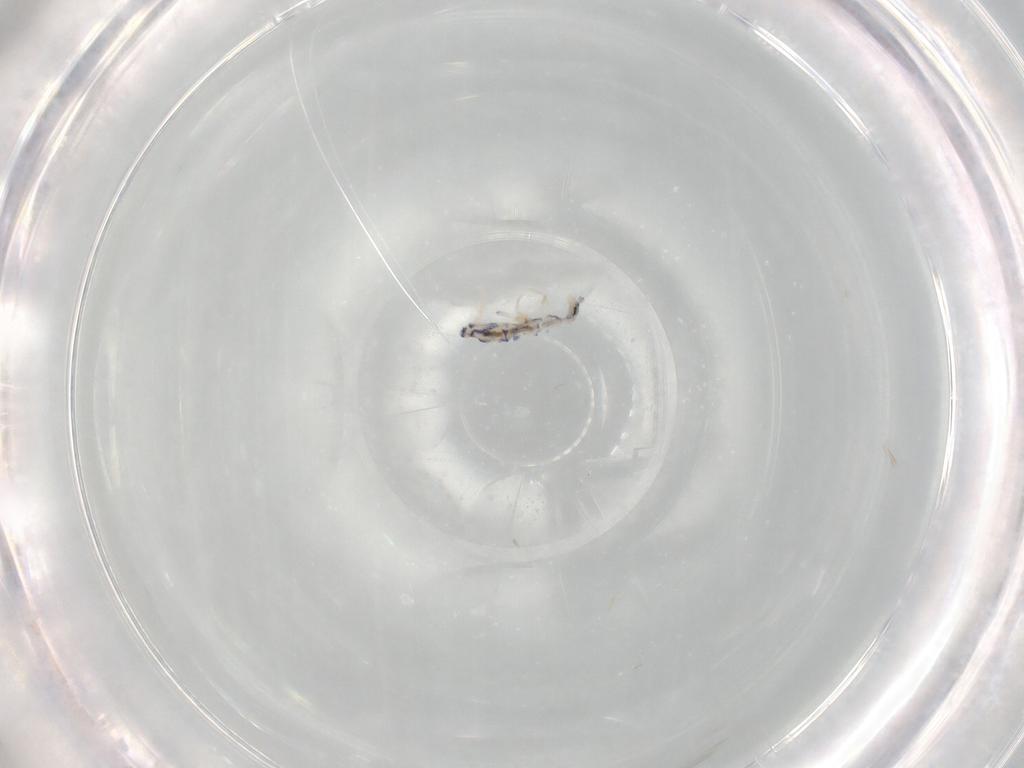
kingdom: Animalia
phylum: Arthropoda
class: Collembola
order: Entomobryomorpha
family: Entomobryidae
